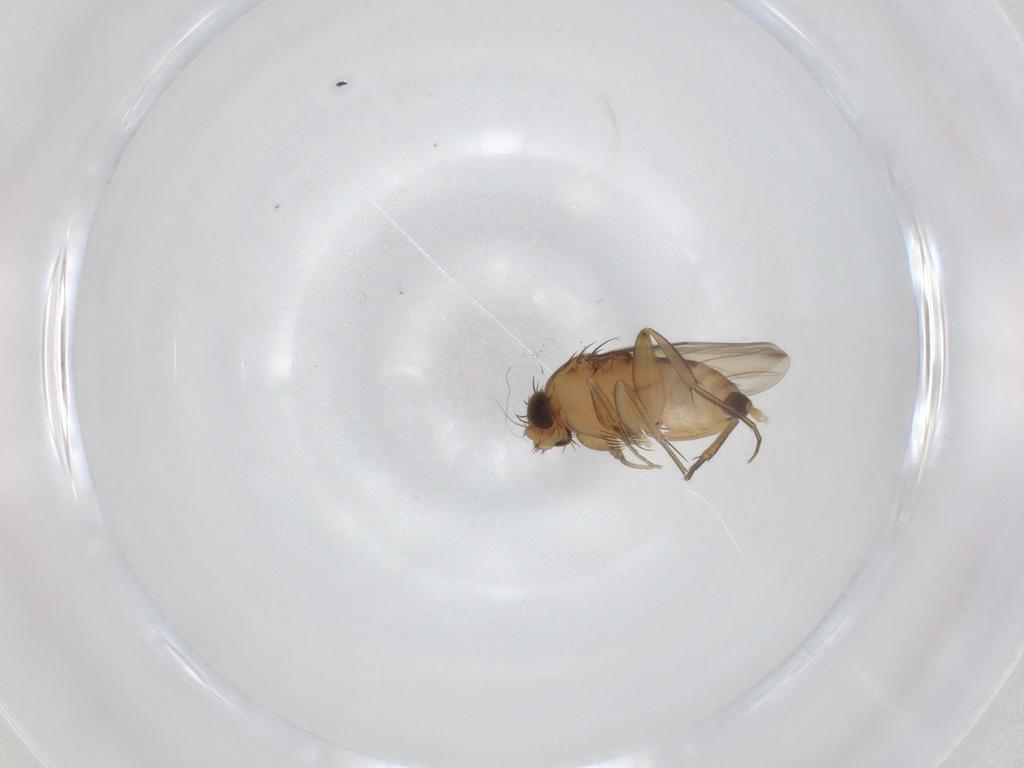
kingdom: Animalia
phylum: Arthropoda
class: Insecta
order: Diptera
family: Phoridae
